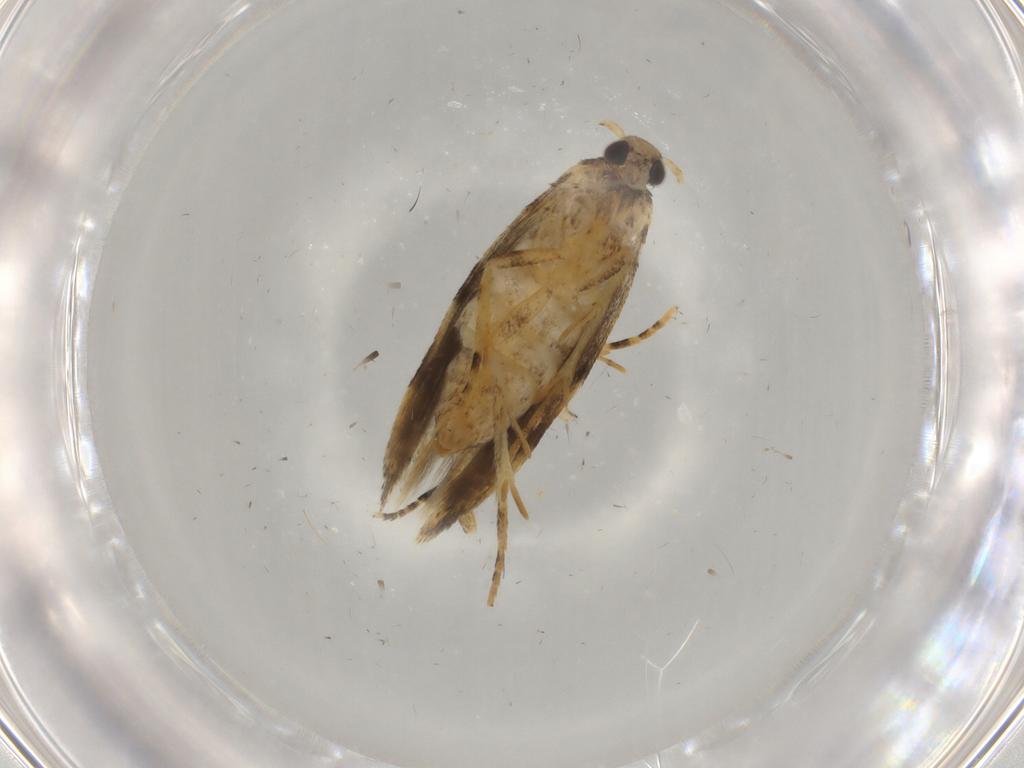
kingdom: Animalia
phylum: Arthropoda
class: Insecta
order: Lepidoptera
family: Gelechiidae
